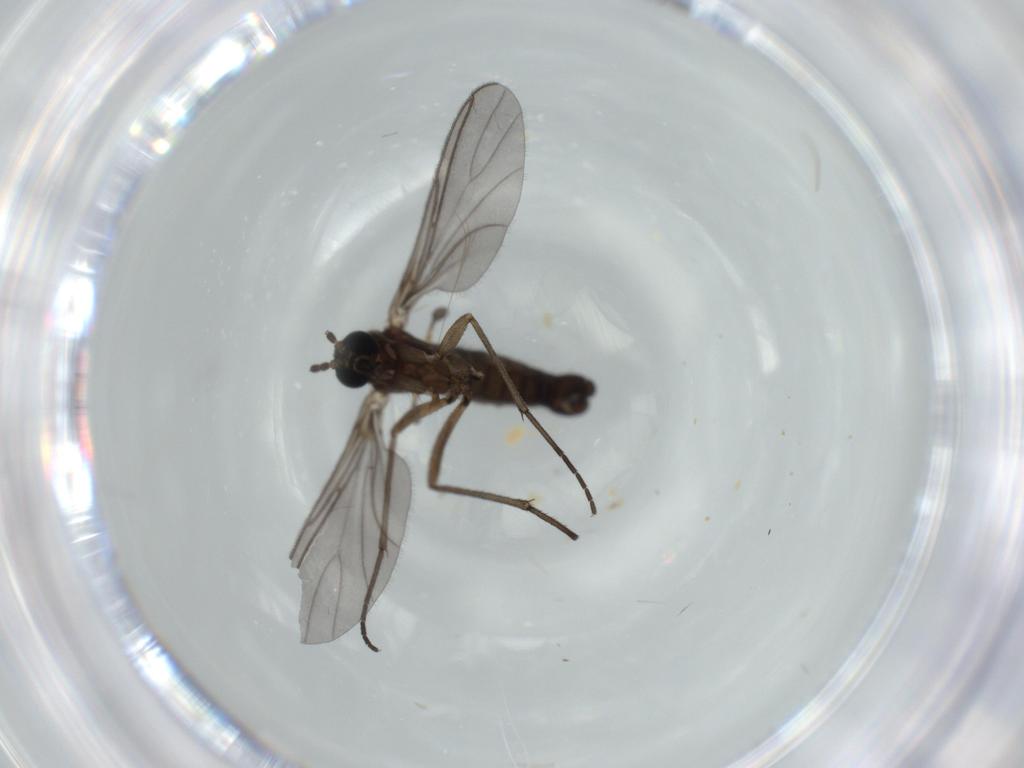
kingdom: Animalia
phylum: Arthropoda
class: Insecta
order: Diptera
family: Sciaridae
